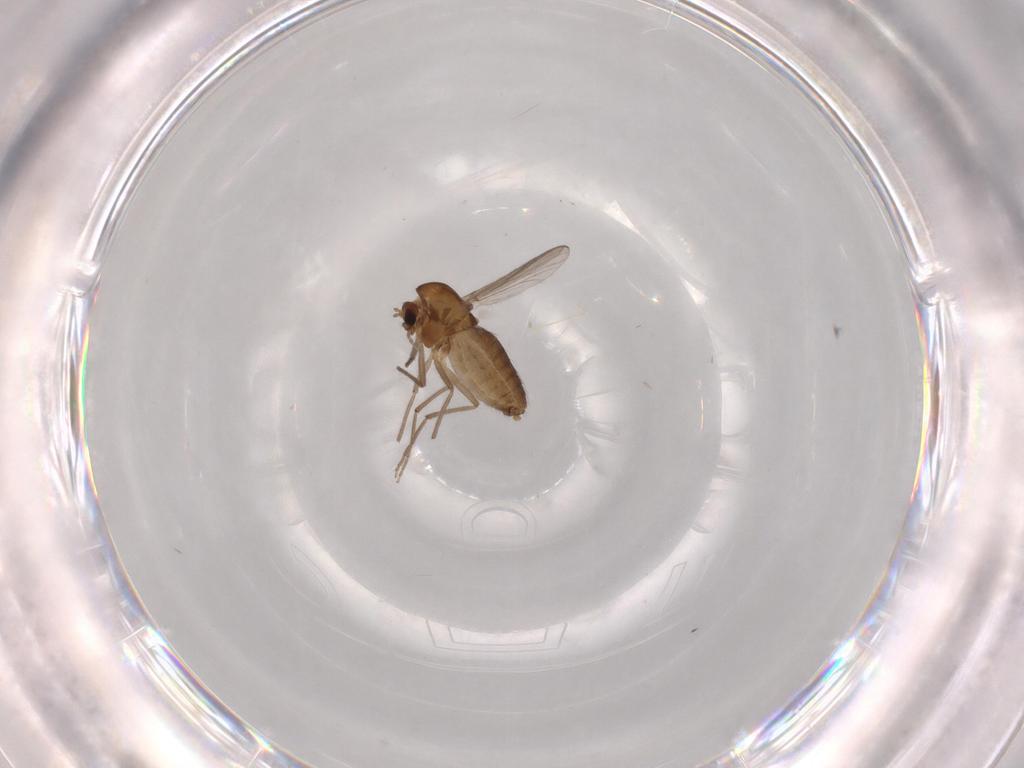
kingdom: Animalia
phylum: Arthropoda
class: Insecta
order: Diptera
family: Chironomidae
